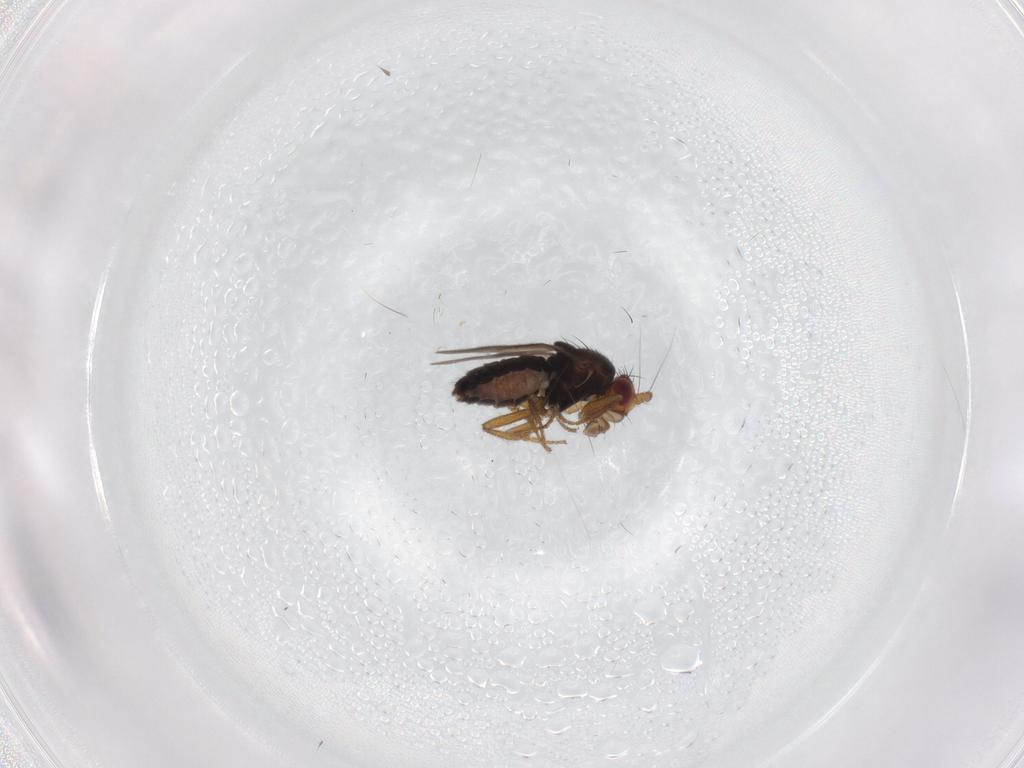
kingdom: Animalia
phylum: Arthropoda
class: Insecta
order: Diptera
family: Sphaeroceridae
